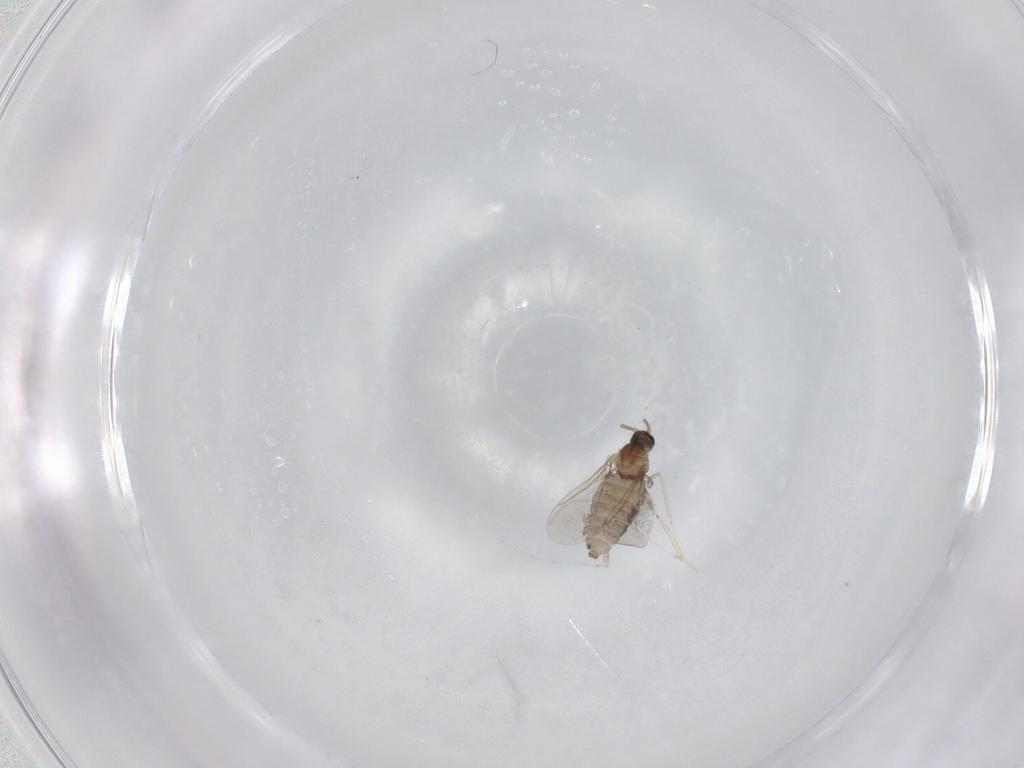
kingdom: Animalia
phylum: Arthropoda
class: Insecta
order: Diptera
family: Cecidomyiidae
